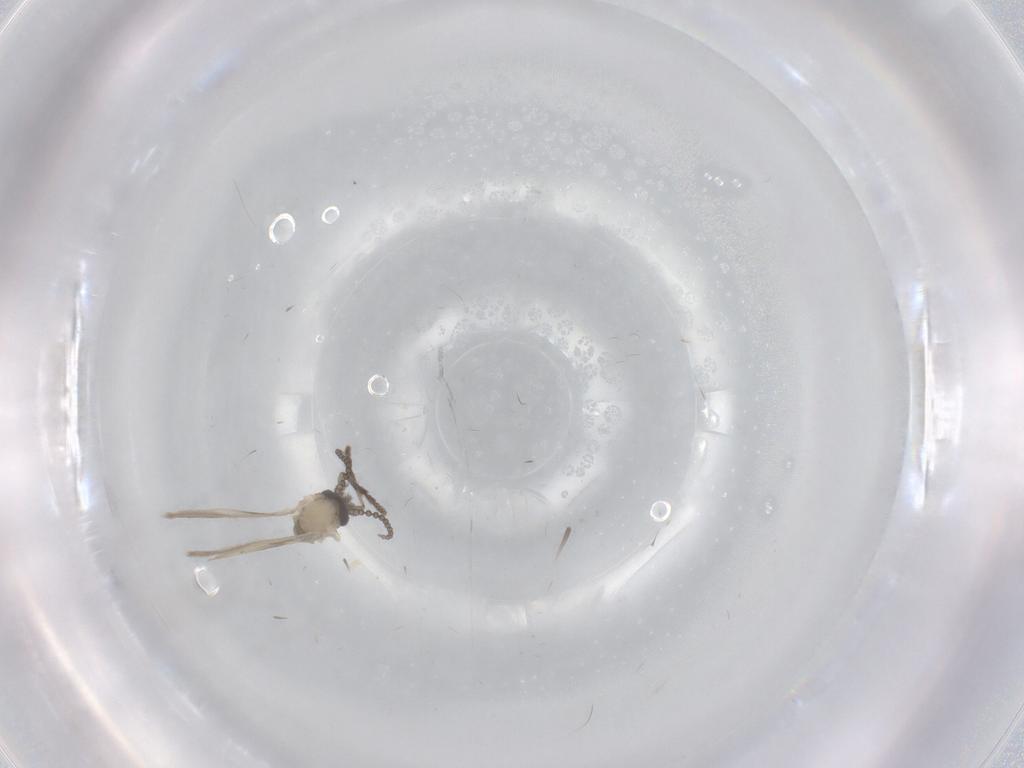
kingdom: Animalia
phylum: Arthropoda
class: Insecta
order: Diptera
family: Psychodidae
